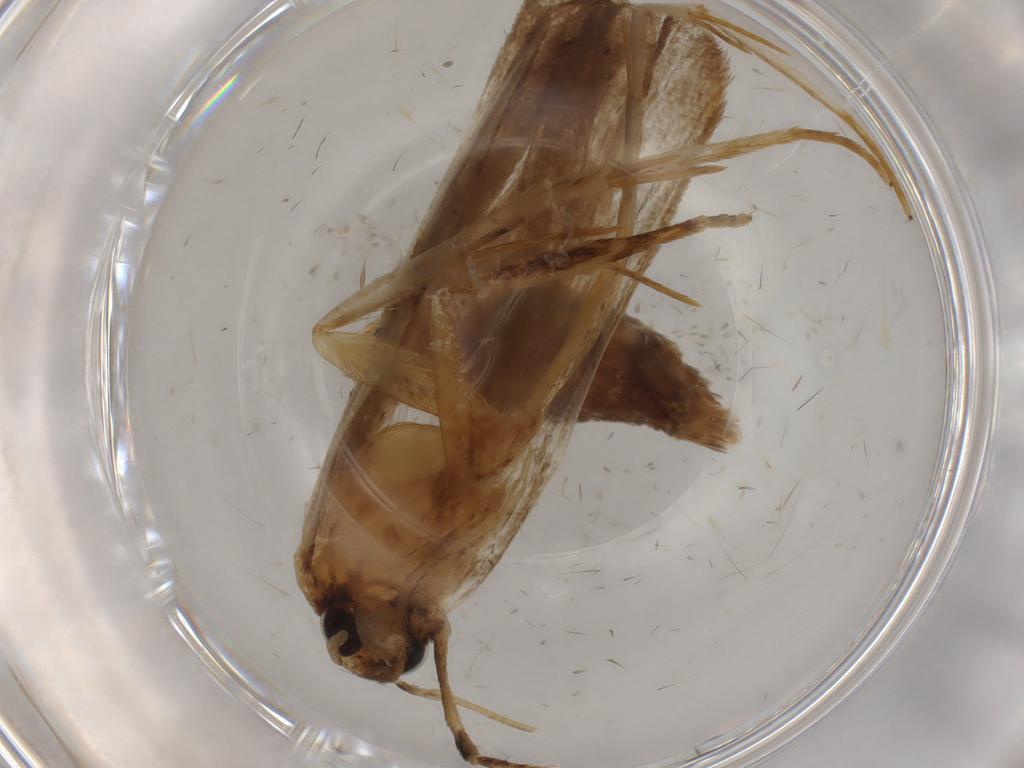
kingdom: Animalia
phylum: Arthropoda
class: Insecta
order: Lepidoptera
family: Autostichidae
